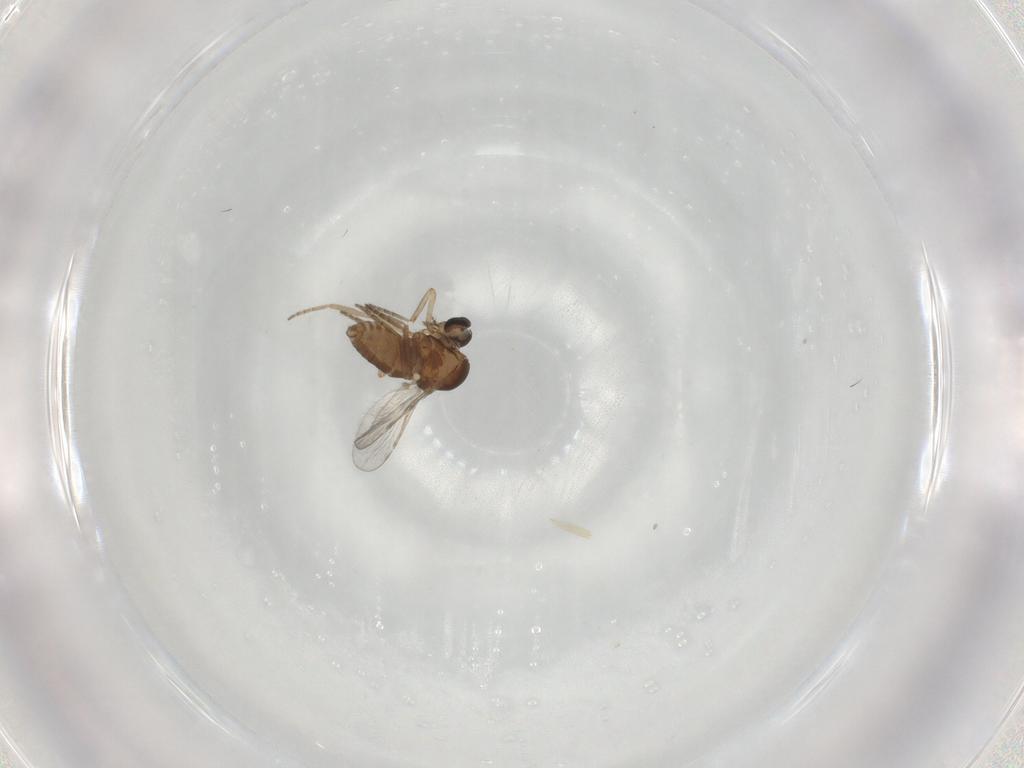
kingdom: Animalia
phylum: Arthropoda
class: Insecta
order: Diptera
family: Ceratopogonidae
